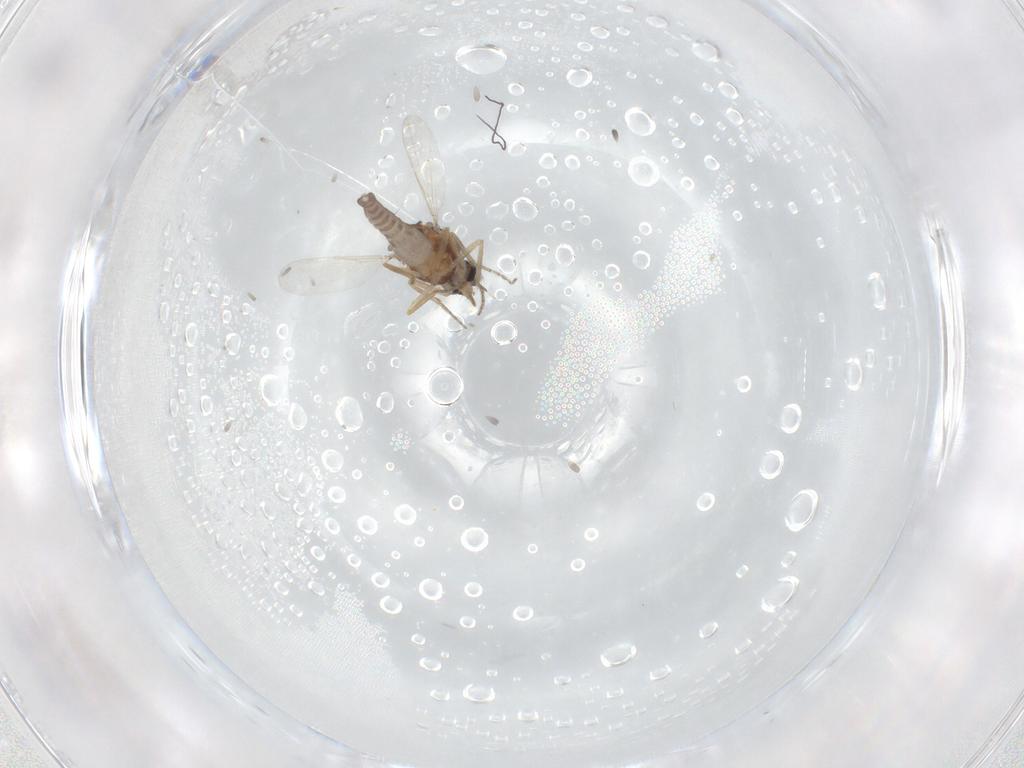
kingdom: Animalia
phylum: Arthropoda
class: Insecta
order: Diptera
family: Ceratopogonidae
